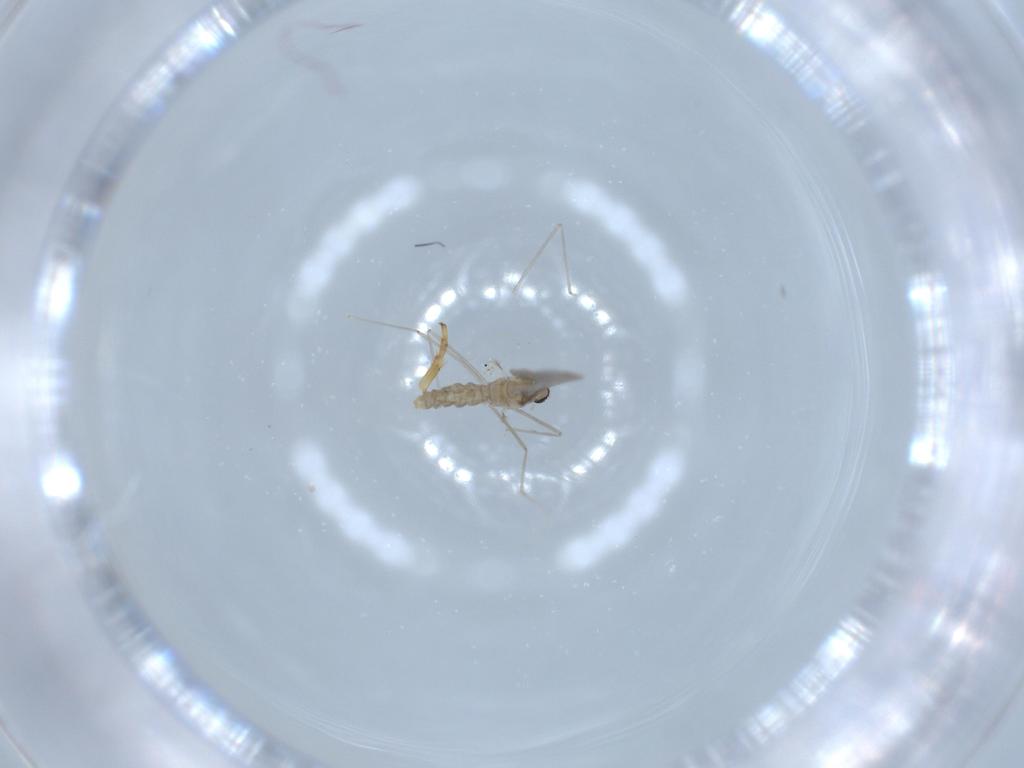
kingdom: Animalia
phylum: Arthropoda
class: Insecta
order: Diptera
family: Cecidomyiidae
